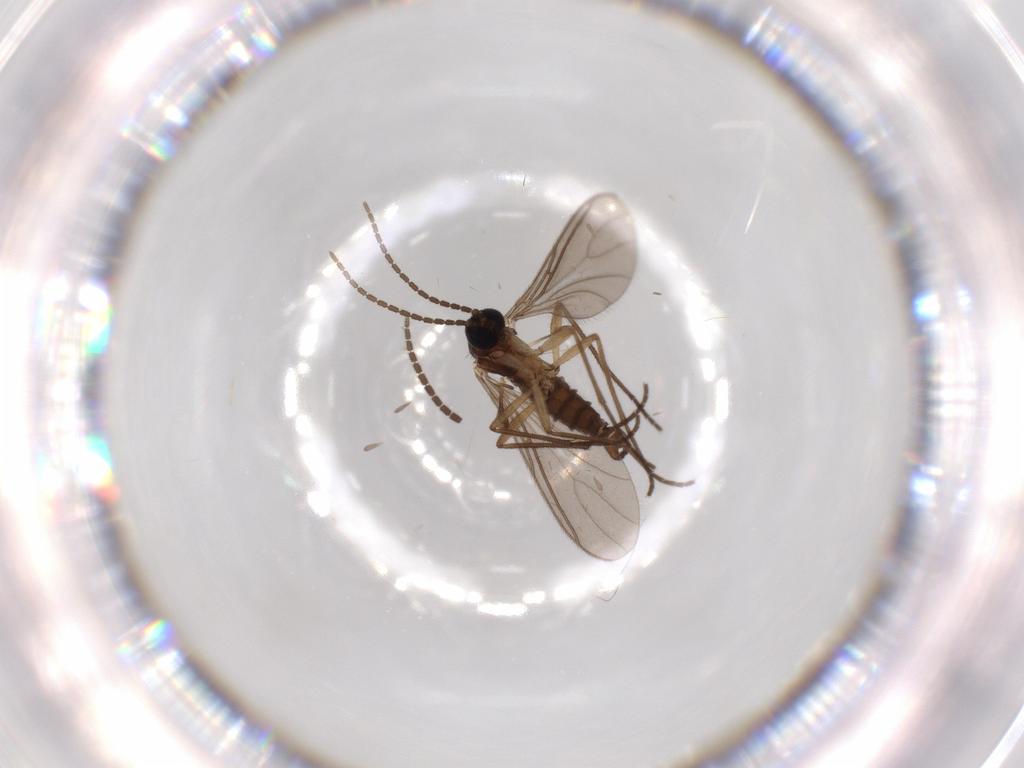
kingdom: Animalia
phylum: Arthropoda
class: Insecta
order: Diptera
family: Sciaridae
